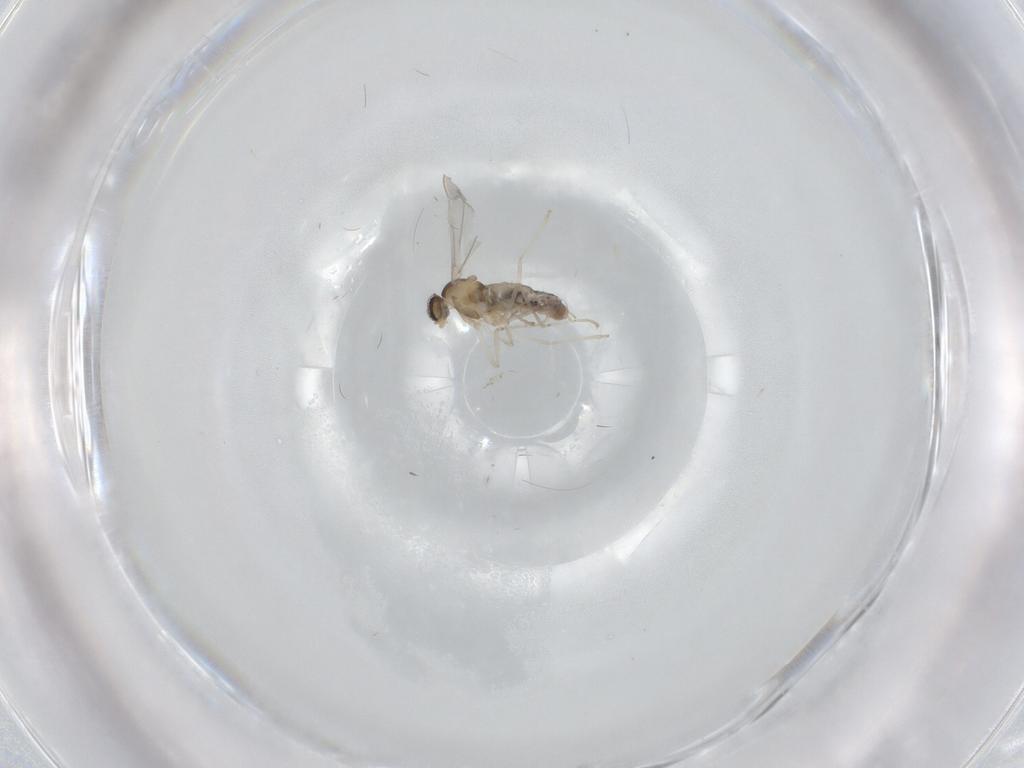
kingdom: Animalia
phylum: Arthropoda
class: Insecta
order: Diptera
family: Cecidomyiidae
